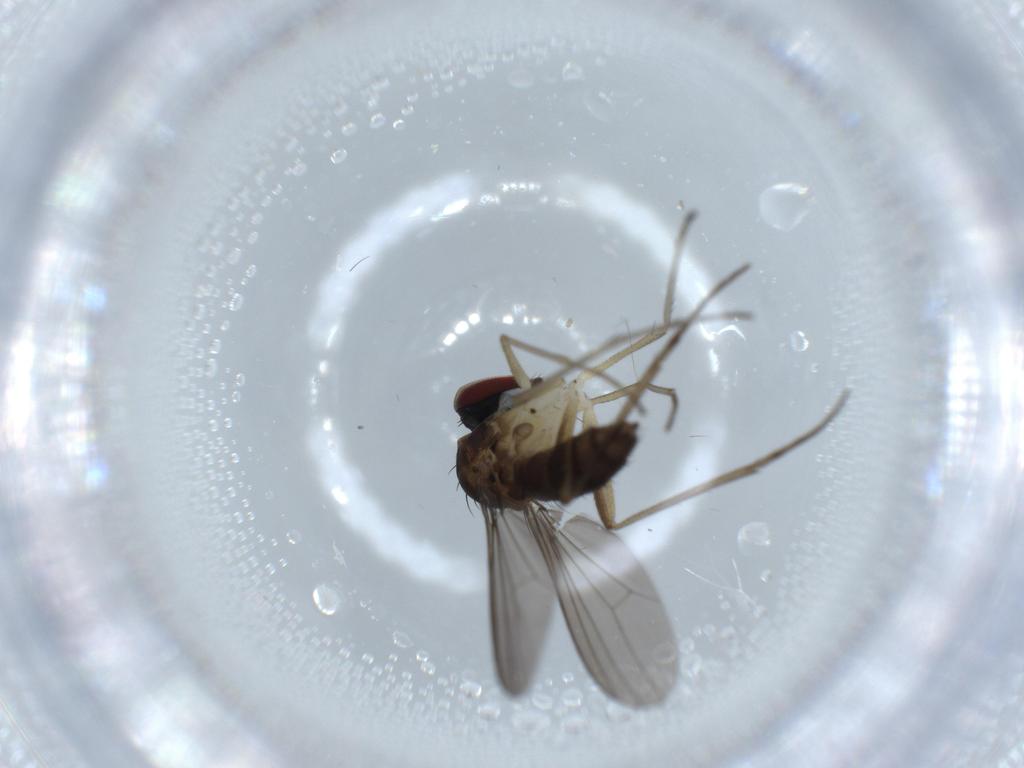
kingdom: Animalia
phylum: Arthropoda
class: Insecta
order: Diptera
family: Dolichopodidae
